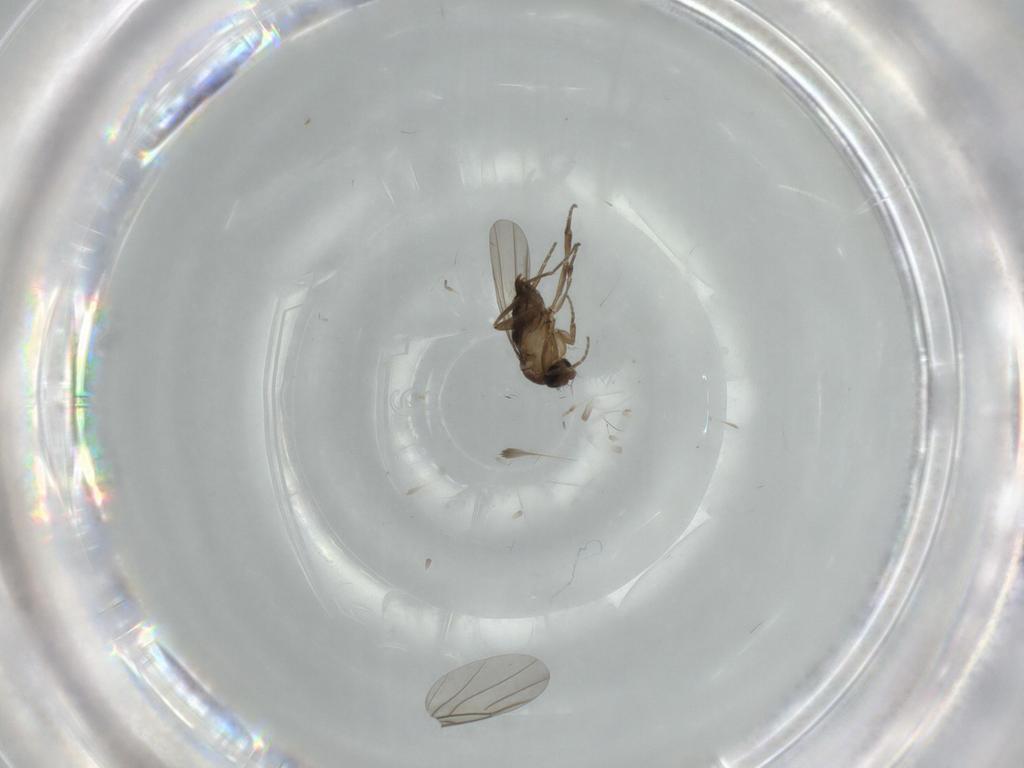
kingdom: Animalia
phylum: Arthropoda
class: Insecta
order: Diptera
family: Phoridae
